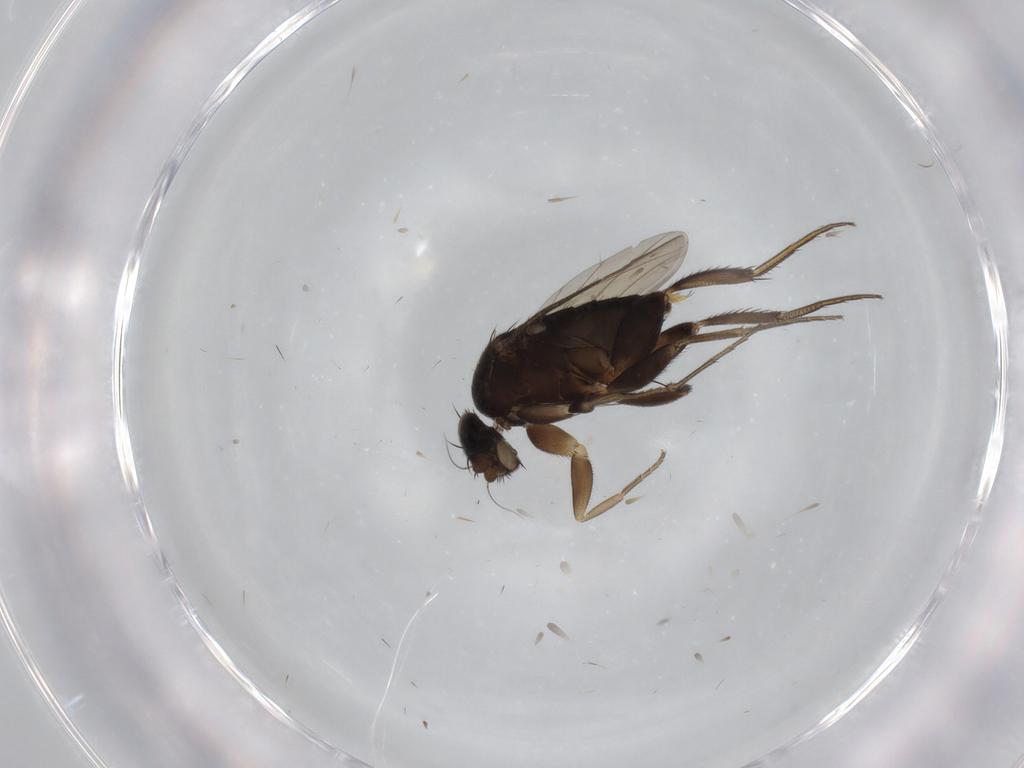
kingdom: Animalia
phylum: Arthropoda
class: Insecta
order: Diptera
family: Phoridae
